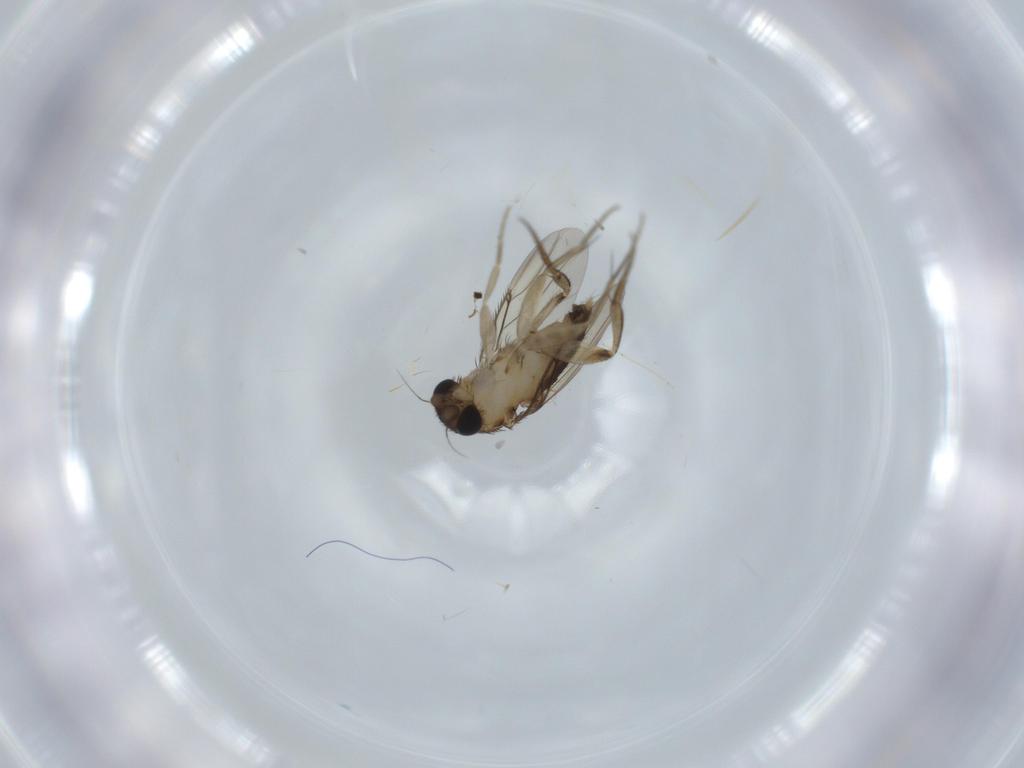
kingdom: Animalia
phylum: Arthropoda
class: Insecta
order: Diptera
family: Phoridae
